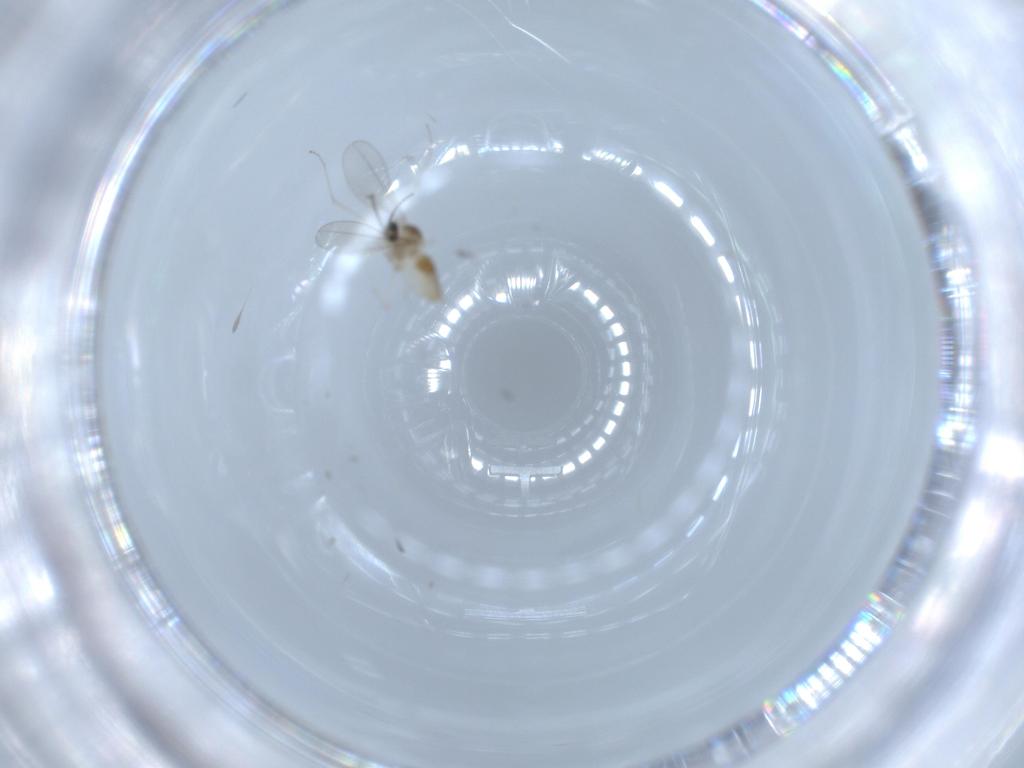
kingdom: Animalia
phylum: Arthropoda
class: Insecta
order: Diptera
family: Cecidomyiidae
